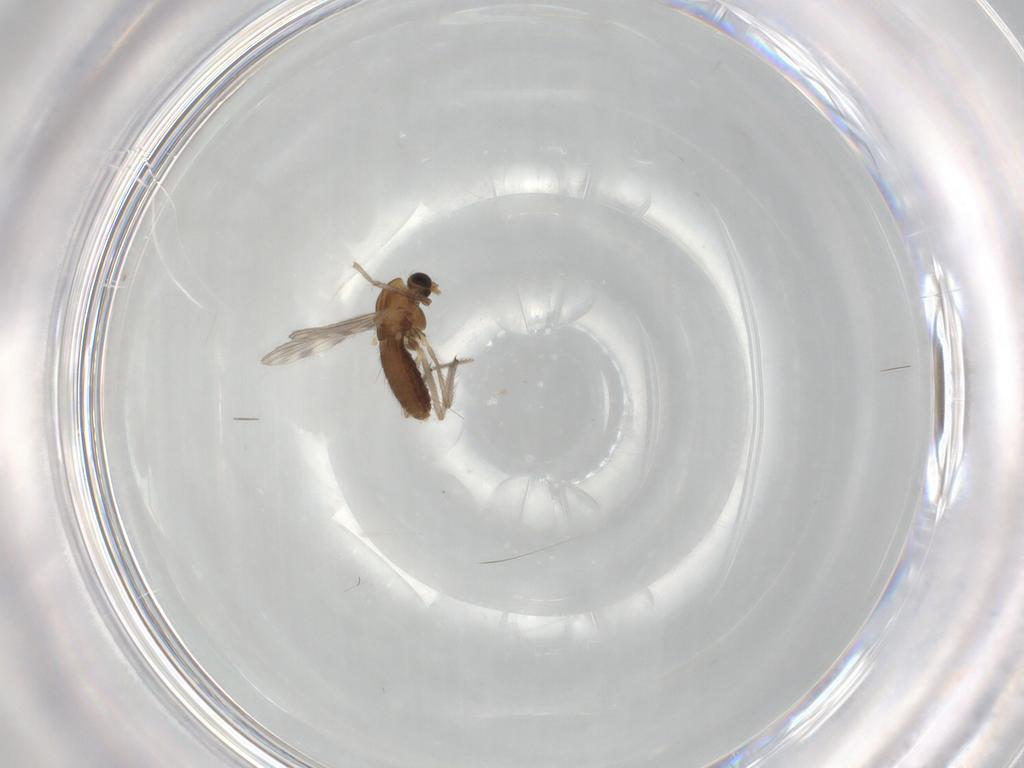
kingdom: Animalia
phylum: Arthropoda
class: Insecta
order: Diptera
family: Chironomidae
